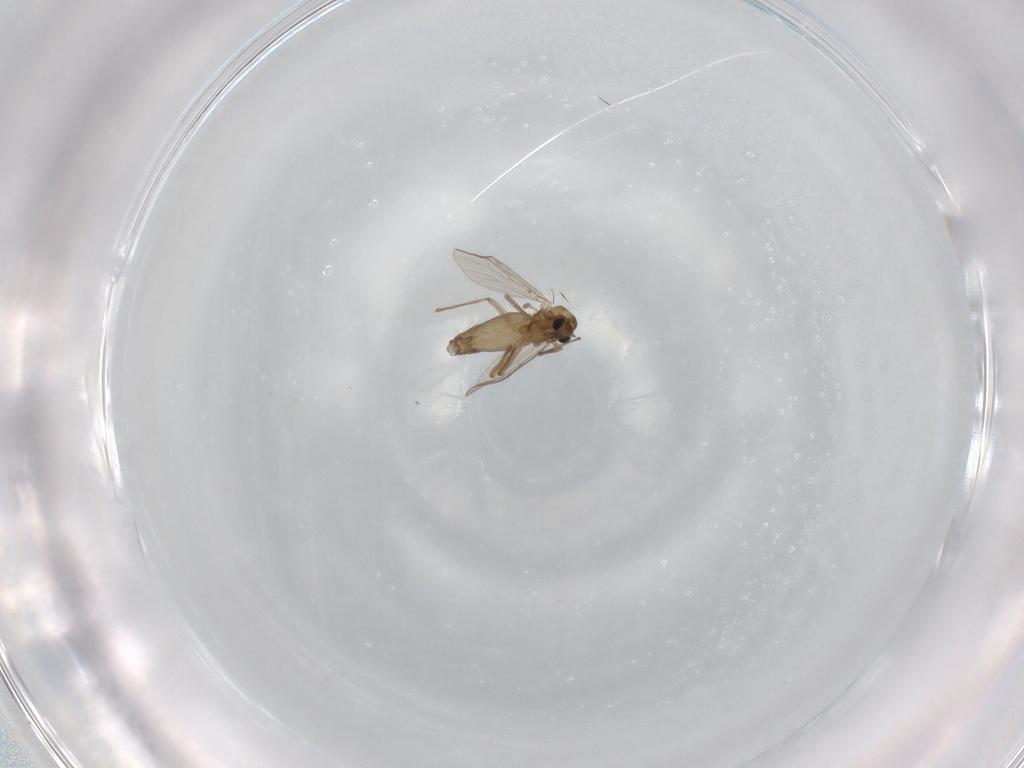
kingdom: Animalia
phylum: Arthropoda
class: Insecta
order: Diptera
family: Chironomidae
